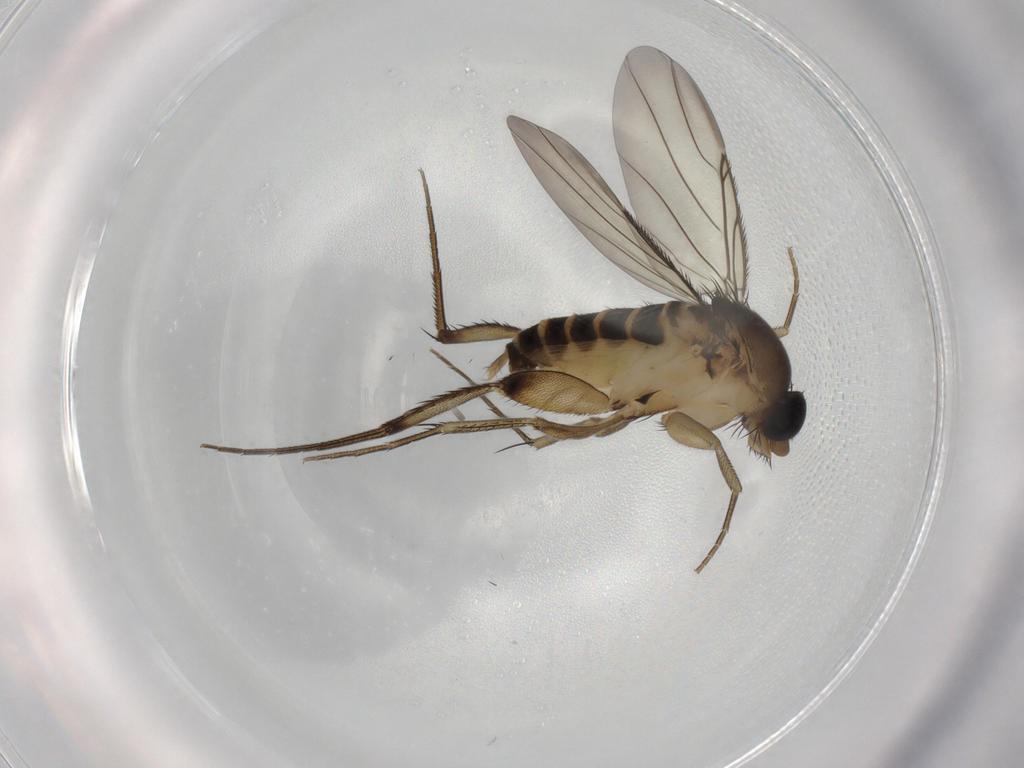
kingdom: Animalia
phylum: Arthropoda
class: Insecta
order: Diptera
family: Phoridae
